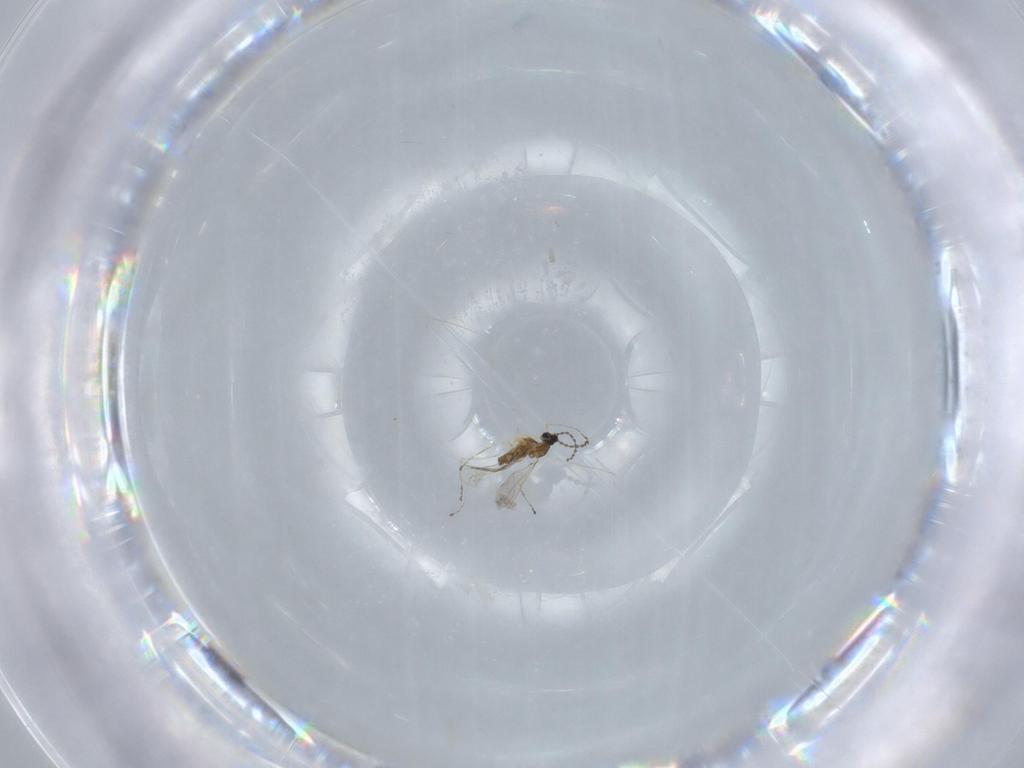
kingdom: Animalia
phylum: Arthropoda
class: Insecta
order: Diptera
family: Cecidomyiidae
